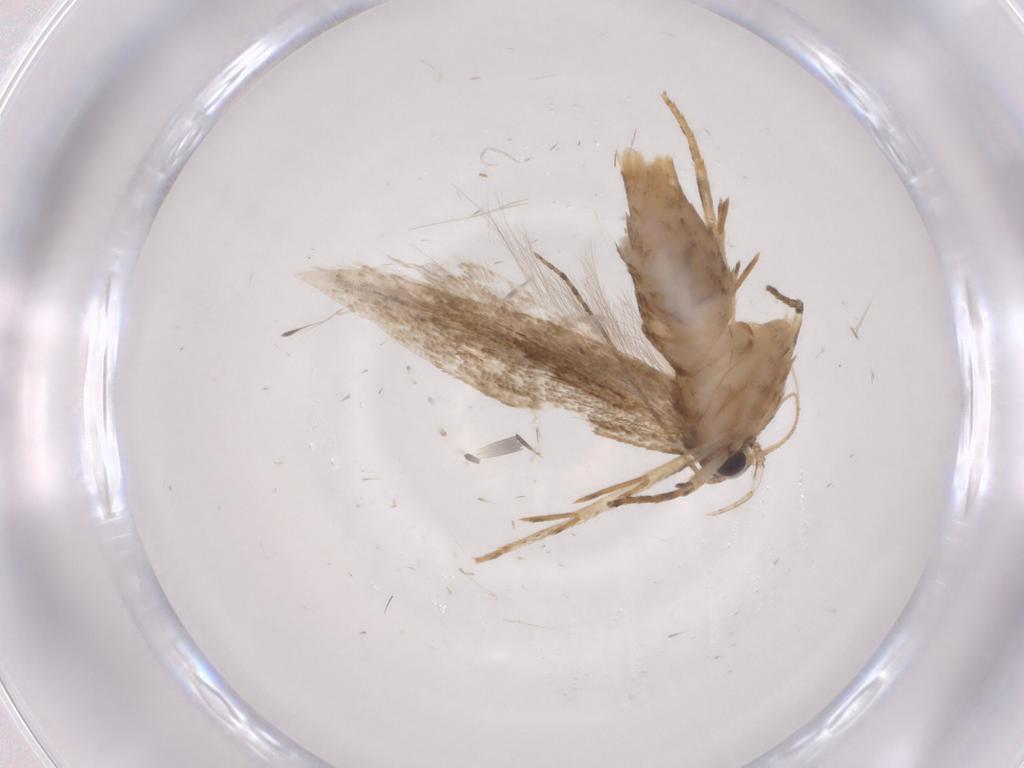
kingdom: Animalia
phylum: Arthropoda
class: Insecta
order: Lepidoptera
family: Gelechiidae
